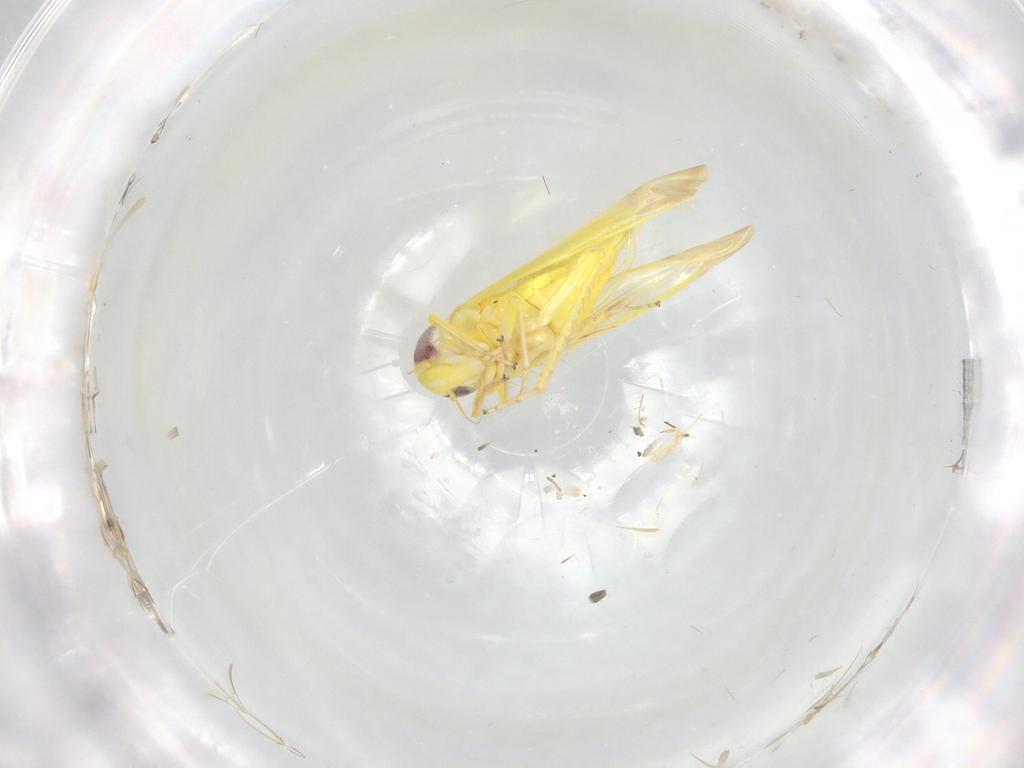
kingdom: Animalia
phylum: Arthropoda
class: Insecta
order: Hemiptera
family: Cicadellidae
